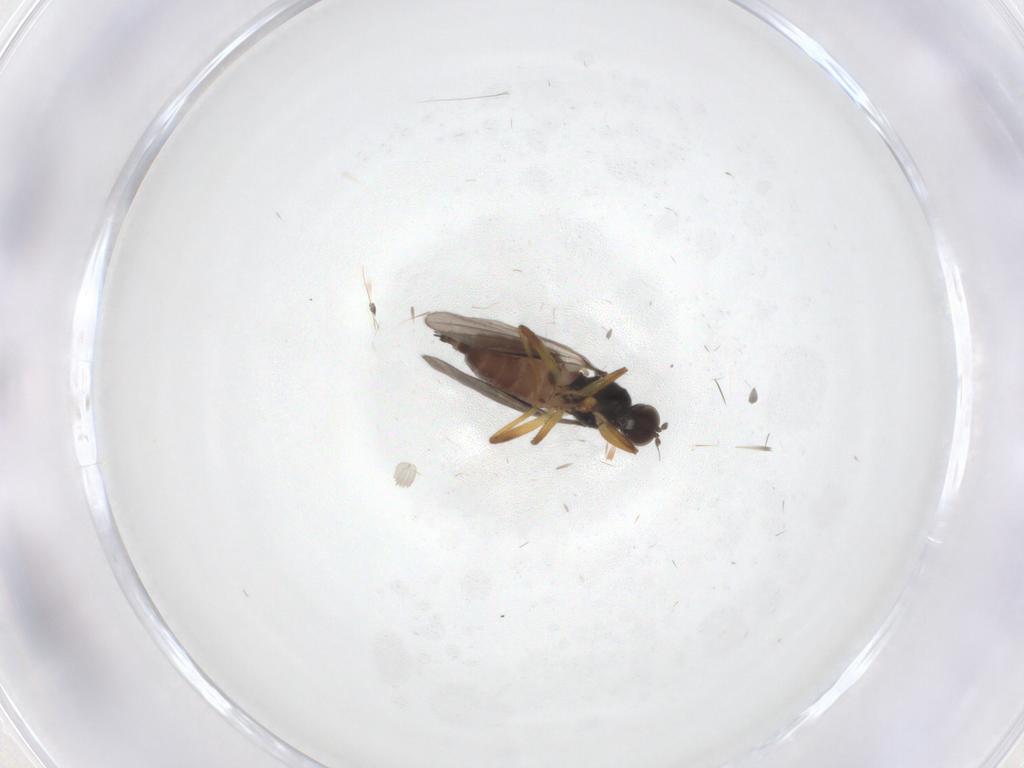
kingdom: Animalia
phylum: Arthropoda
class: Insecta
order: Diptera
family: Hybotidae
